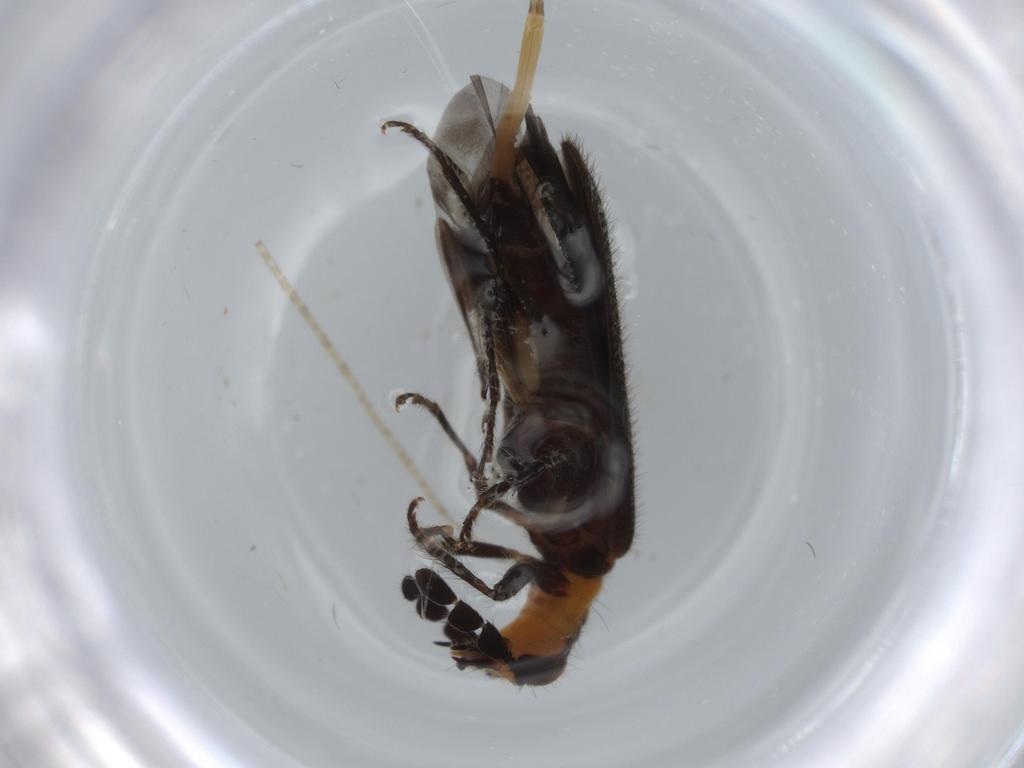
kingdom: Animalia
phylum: Arthropoda
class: Insecta
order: Coleoptera
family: Cleridae
